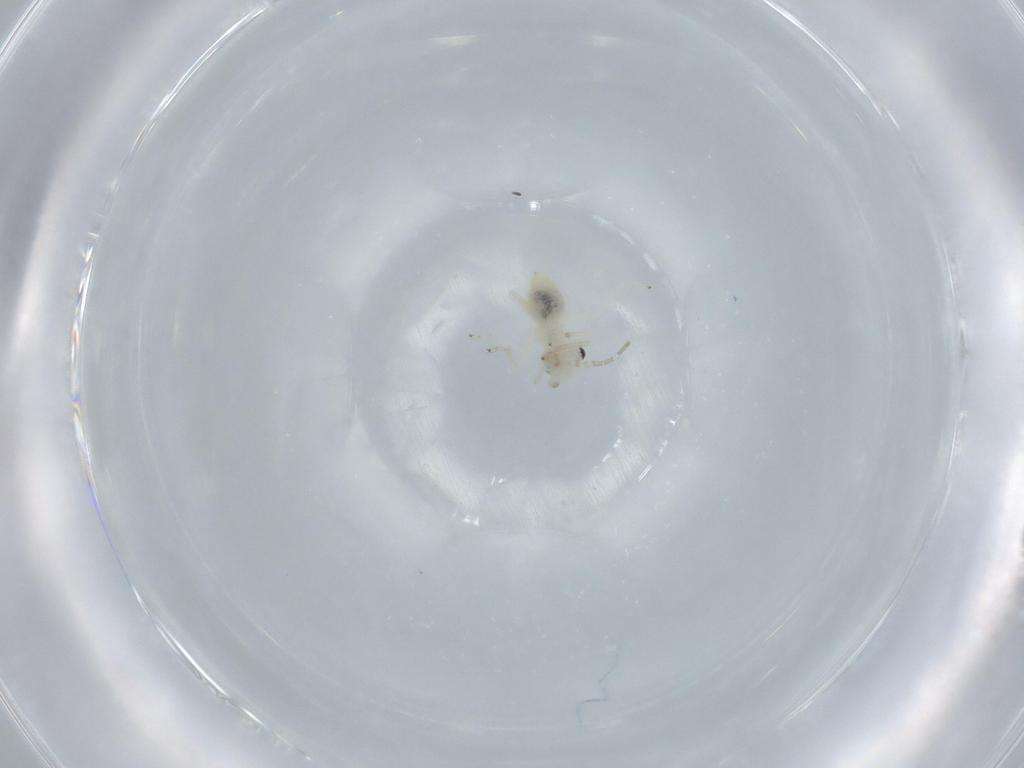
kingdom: Animalia
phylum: Arthropoda
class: Insecta
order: Psocodea
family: Caeciliusidae
